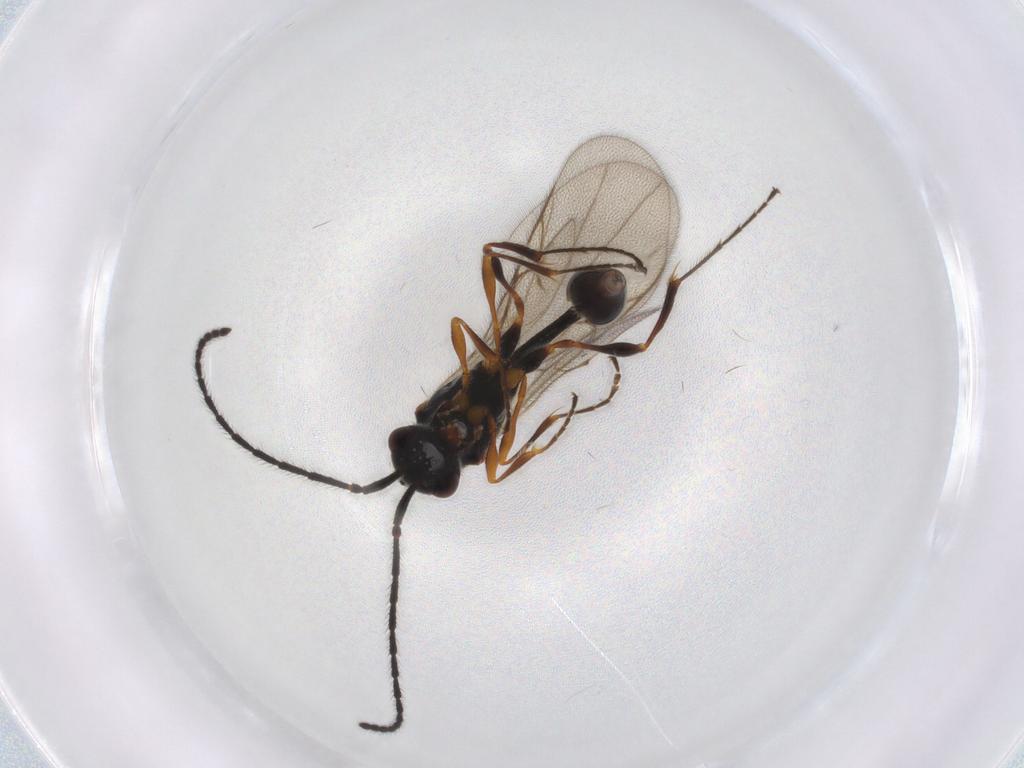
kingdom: Animalia
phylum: Arthropoda
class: Insecta
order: Hymenoptera
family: Diapriidae
